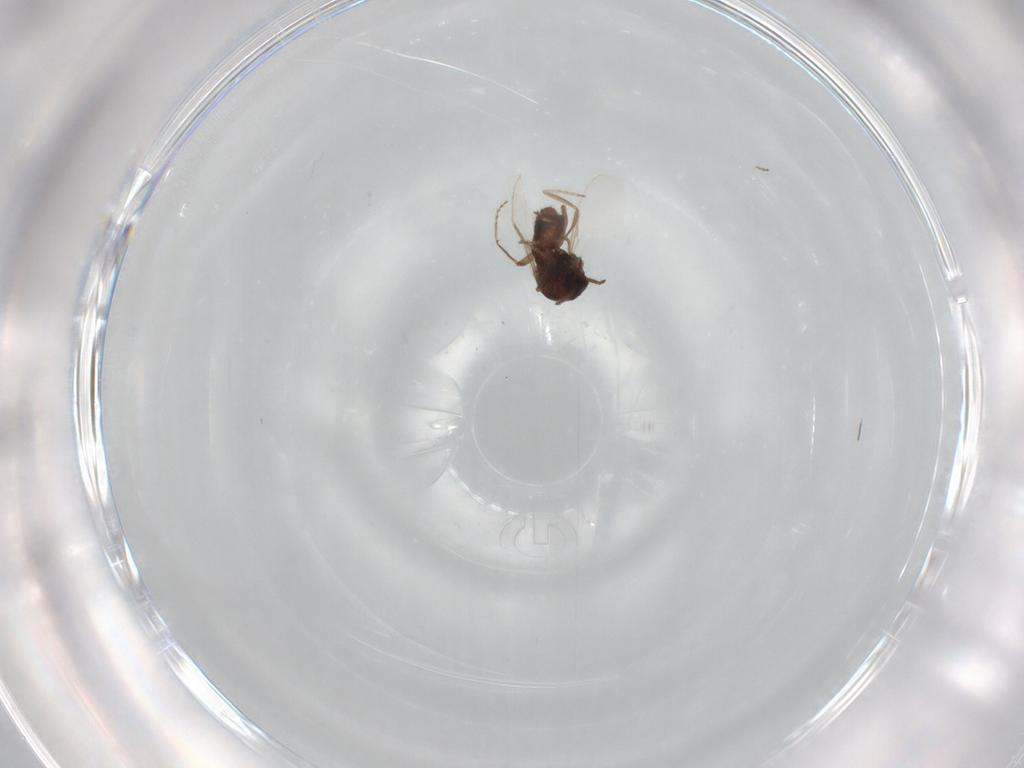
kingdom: Animalia
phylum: Arthropoda
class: Insecta
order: Diptera
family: Ceratopogonidae
